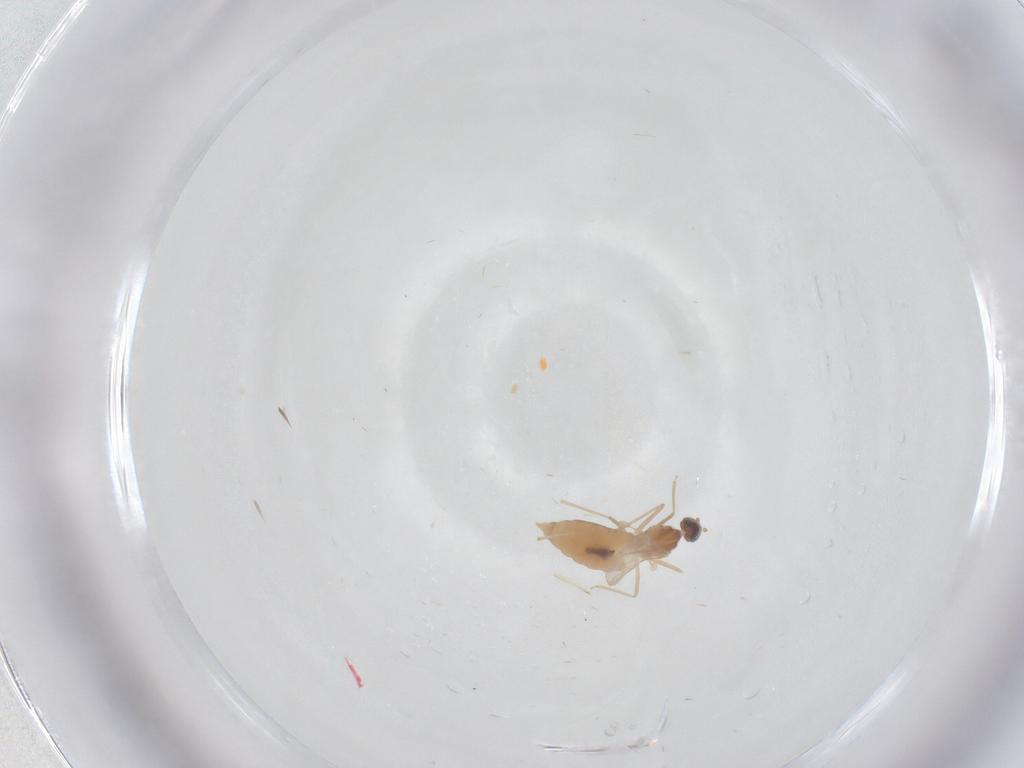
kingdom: Animalia
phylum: Arthropoda
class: Insecta
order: Diptera
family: Cecidomyiidae
